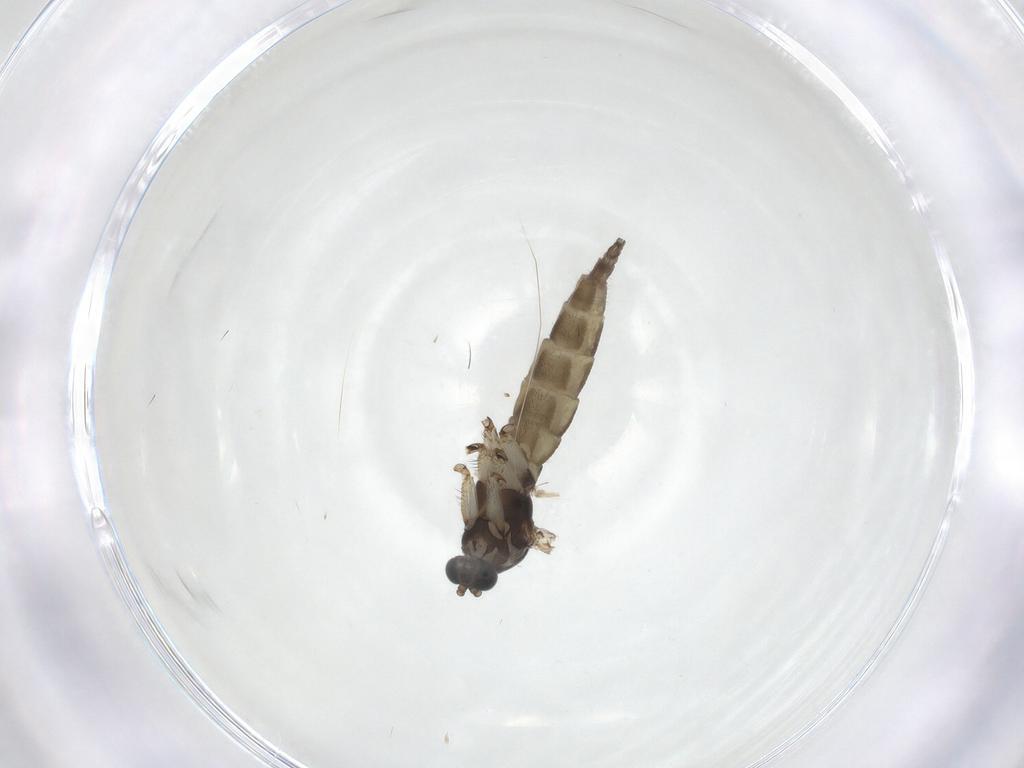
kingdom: Animalia
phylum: Arthropoda
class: Insecta
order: Diptera
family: Sciaridae
